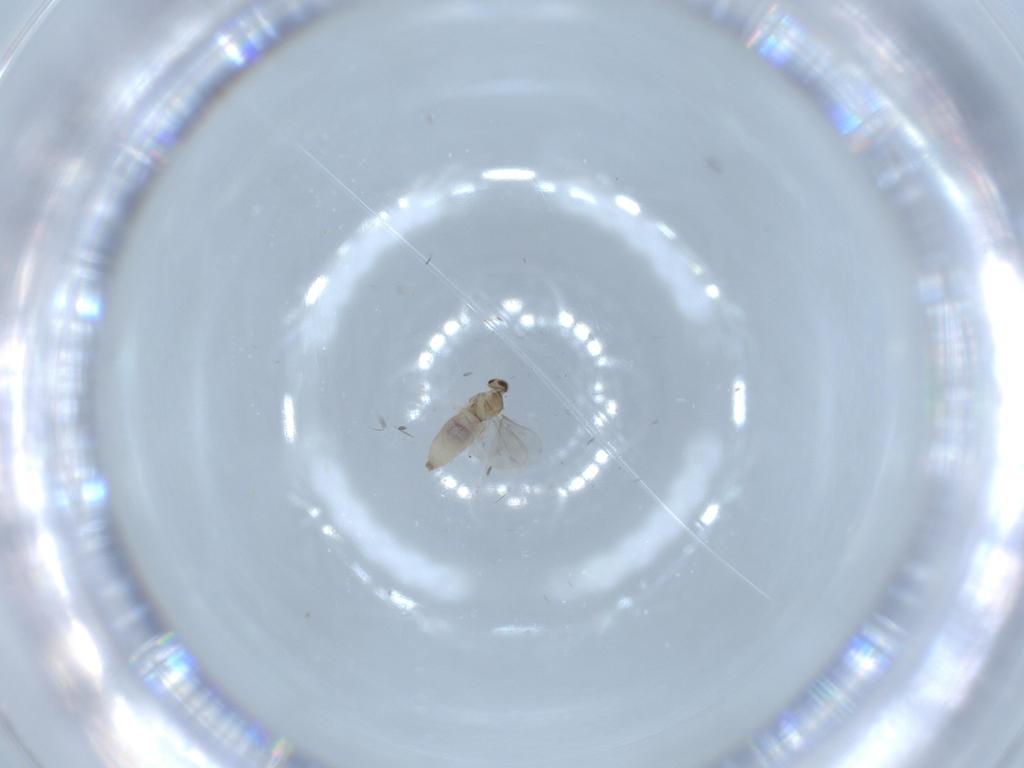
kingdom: Animalia
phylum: Arthropoda
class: Insecta
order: Diptera
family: Cecidomyiidae
